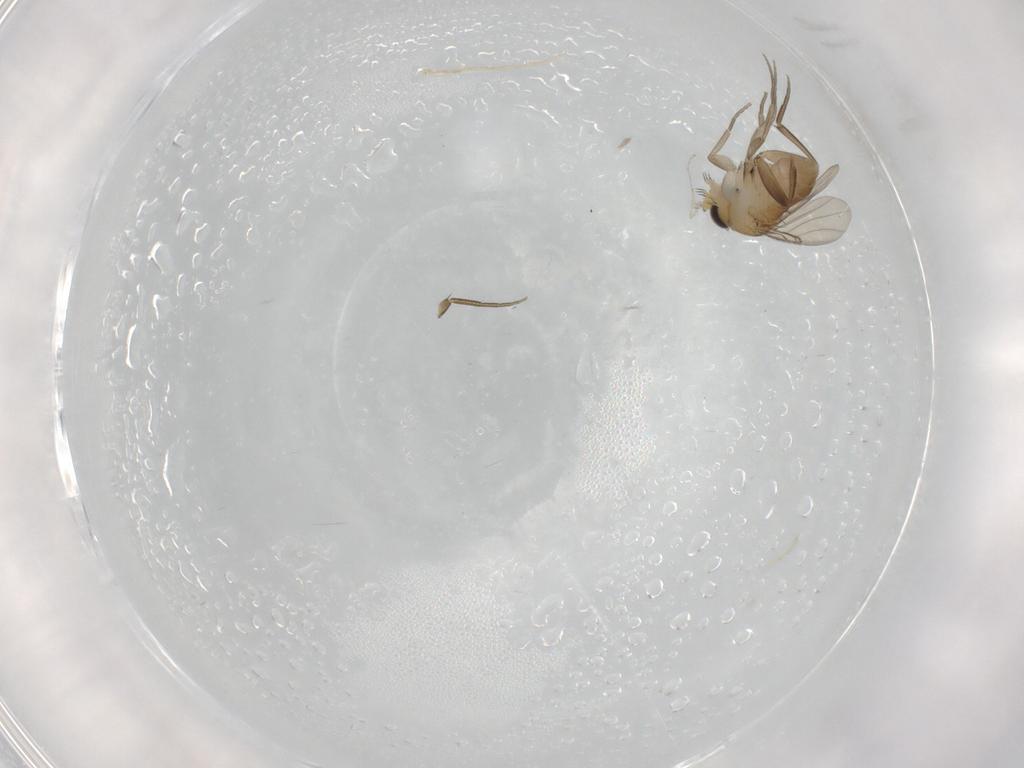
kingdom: Animalia
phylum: Arthropoda
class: Insecta
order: Diptera
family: Phoridae
